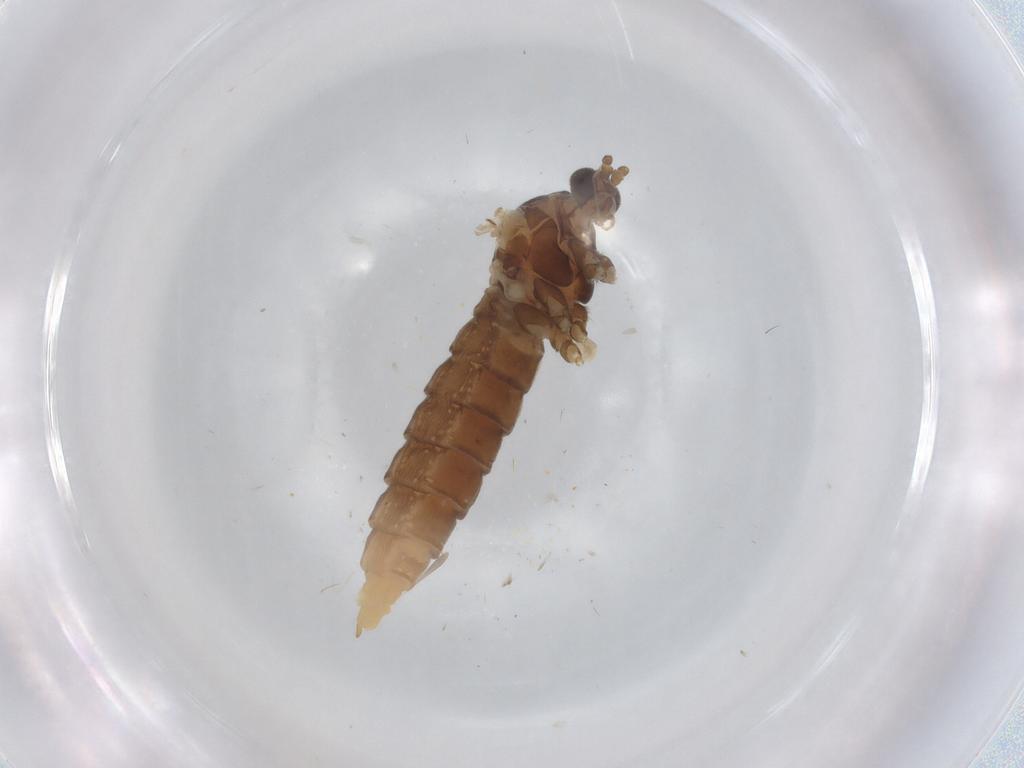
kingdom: Animalia
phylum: Arthropoda
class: Insecta
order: Diptera
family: Cecidomyiidae
